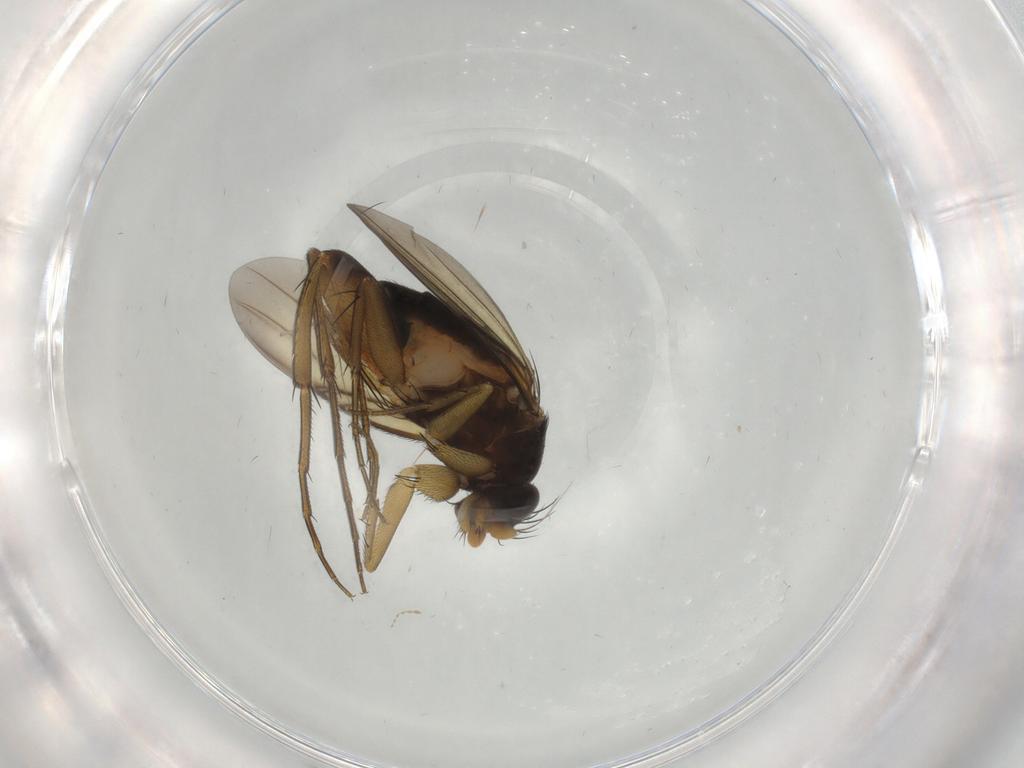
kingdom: Animalia
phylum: Arthropoda
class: Insecta
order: Diptera
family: Phoridae
